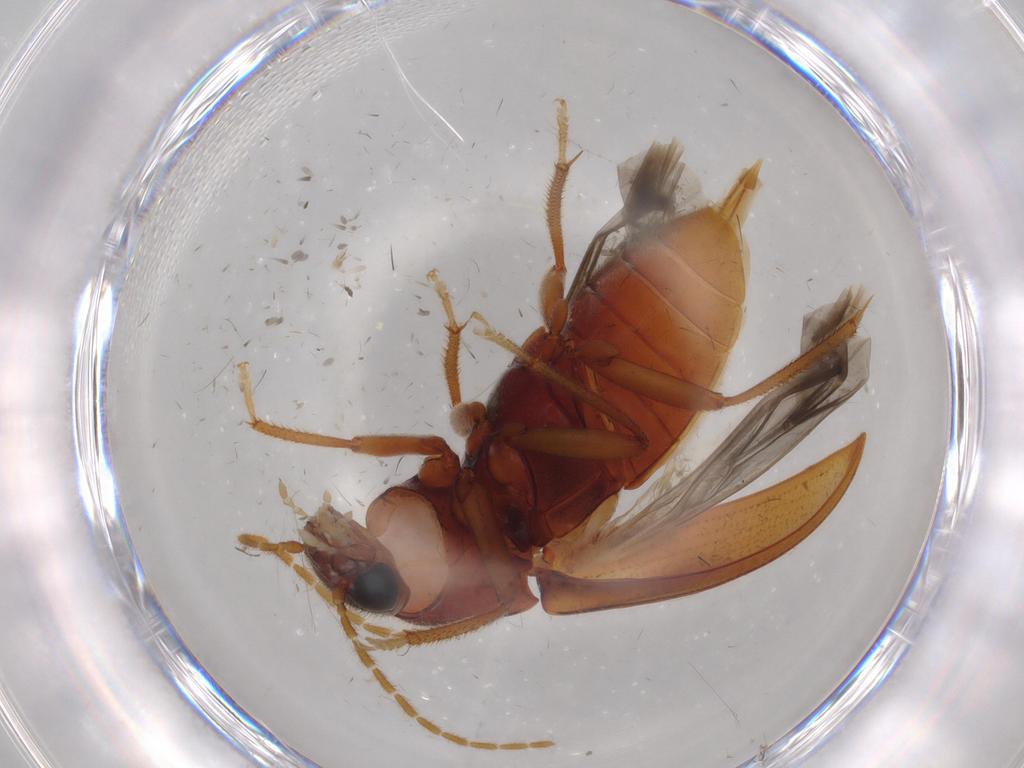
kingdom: Animalia
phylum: Arthropoda
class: Insecta
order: Coleoptera
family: Ptilodactylidae
